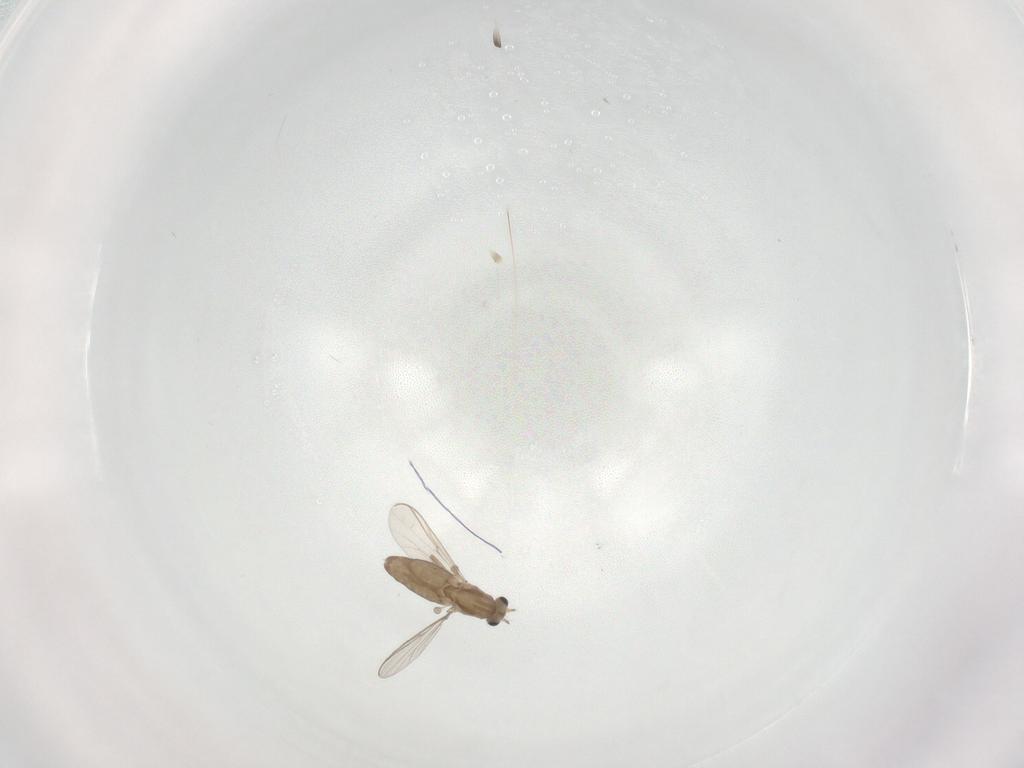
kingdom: Animalia
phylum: Arthropoda
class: Insecta
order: Diptera
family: Chironomidae
